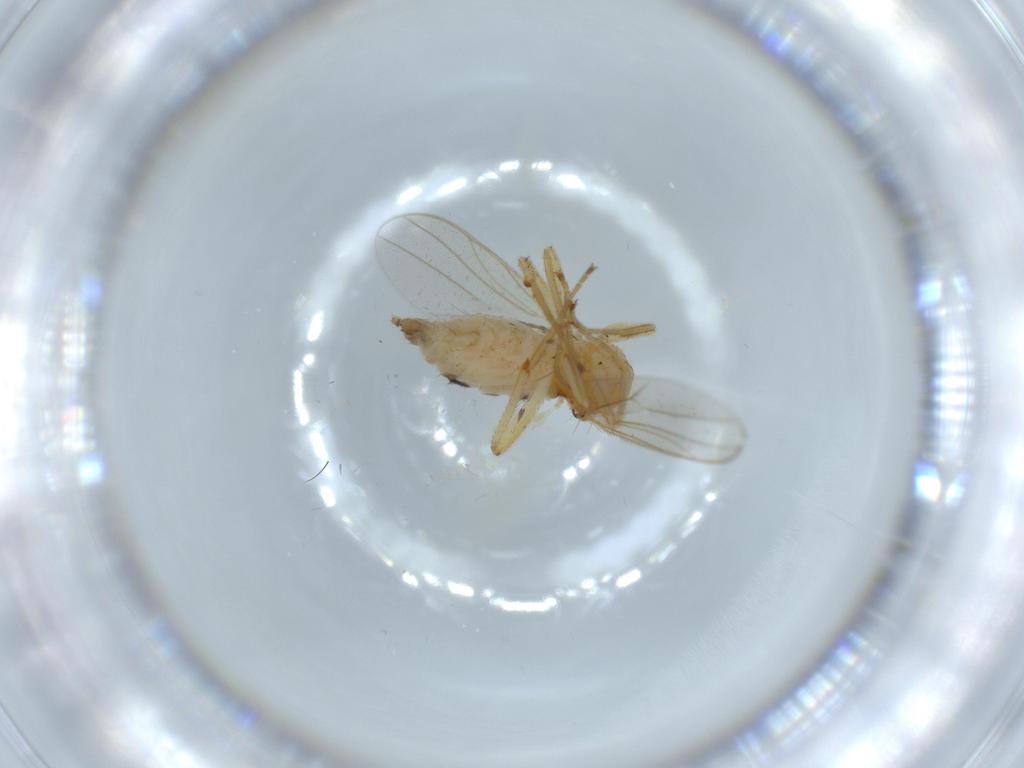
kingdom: Animalia
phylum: Arthropoda
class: Insecta
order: Diptera
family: Hybotidae
